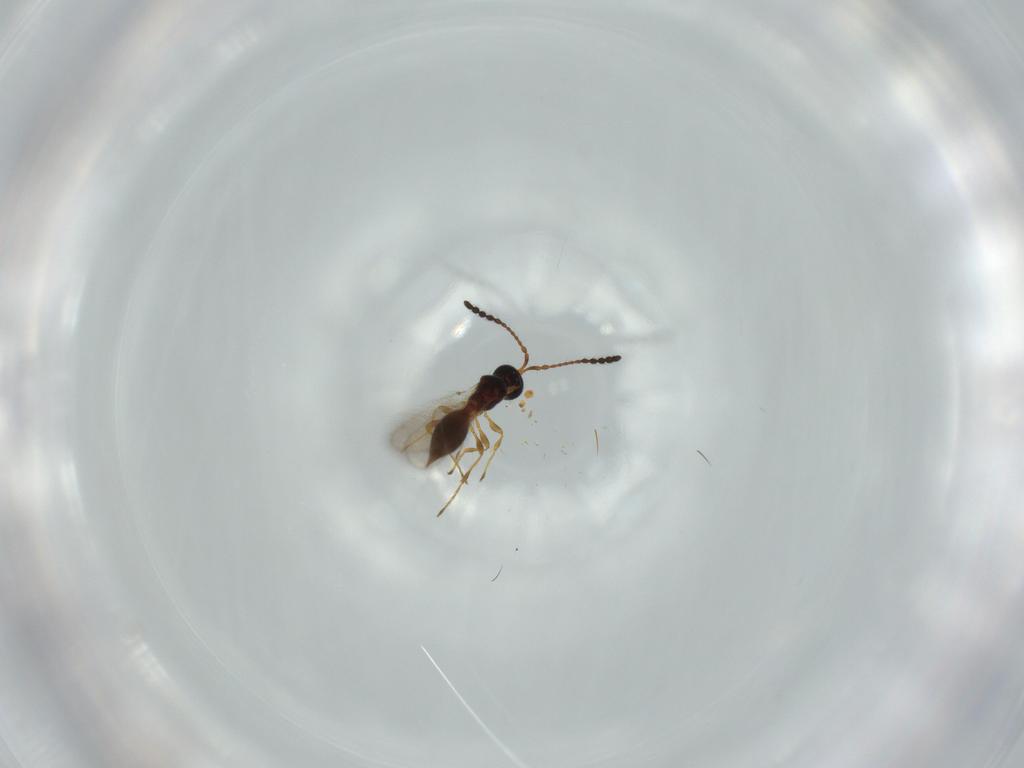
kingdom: Animalia
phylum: Arthropoda
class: Insecta
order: Hymenoptera
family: Diapriidae
